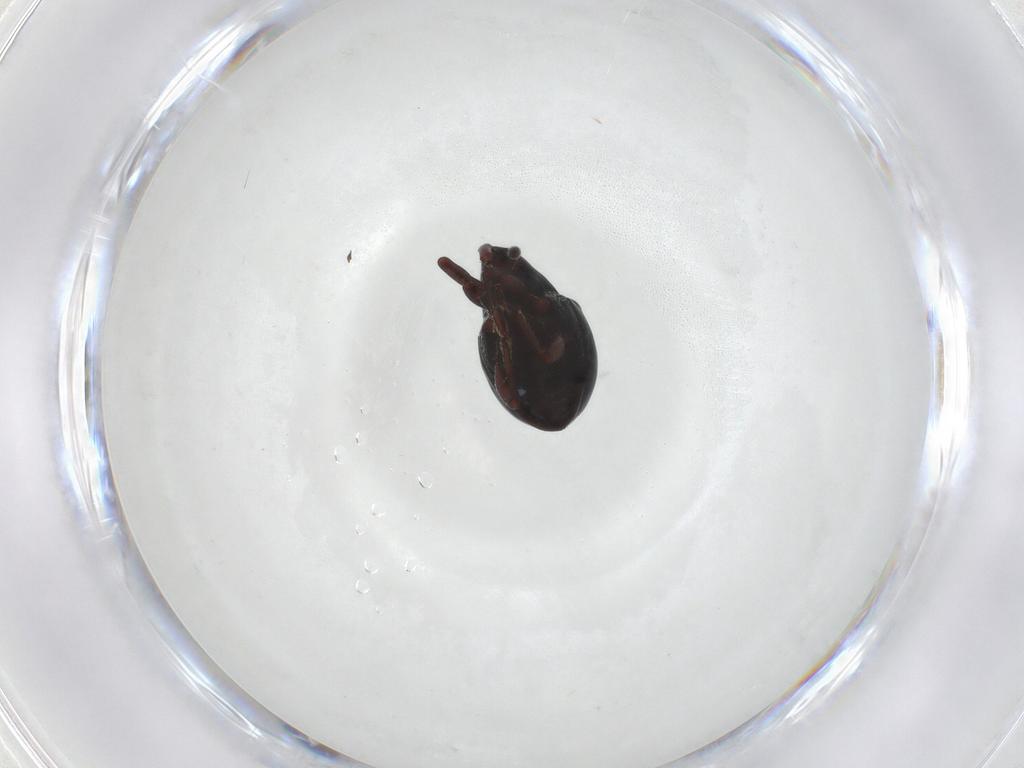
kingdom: Animalia
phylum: Arthropoda
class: Insecta
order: Coleoptera
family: Curculionidae
